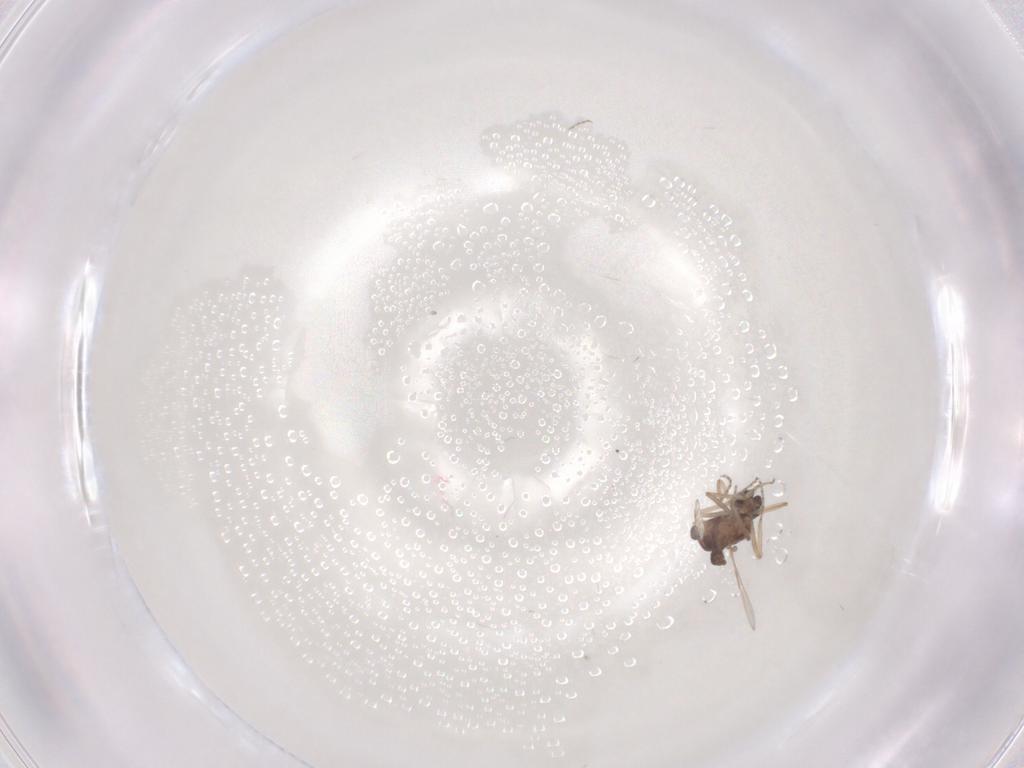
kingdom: Animalia
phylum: Arthropoda
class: Insecta
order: Diptera
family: Ceratopogonidae
